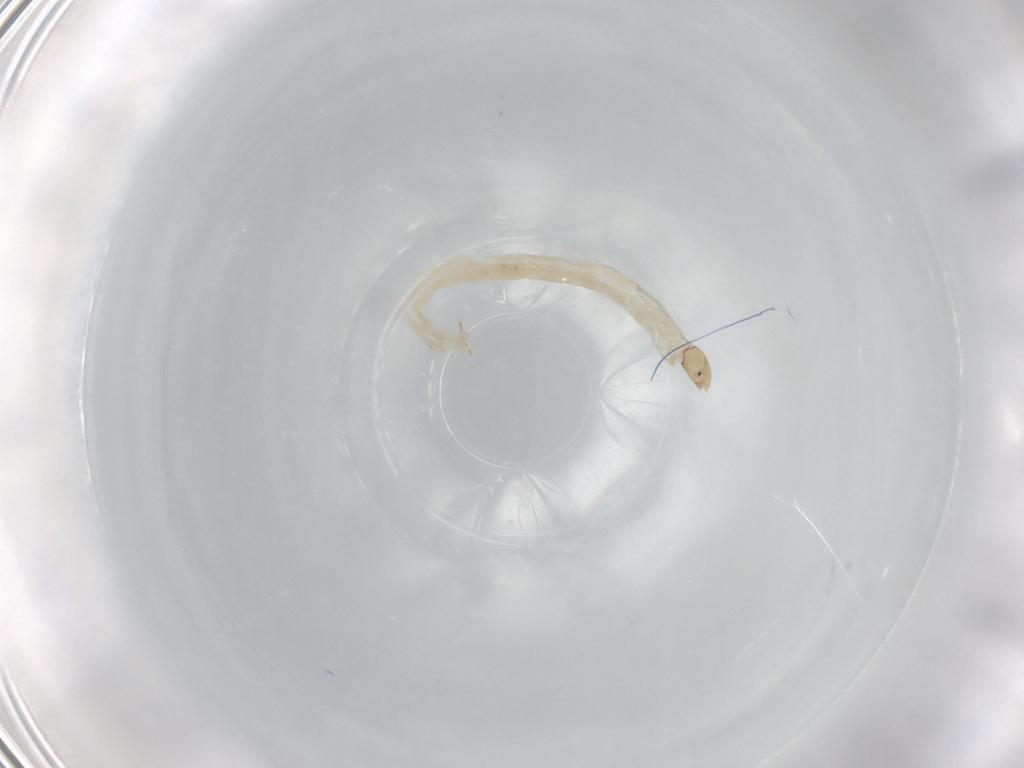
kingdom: Animalia
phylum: Arthropoda
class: Insecta
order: Diptera
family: Chironomidae
